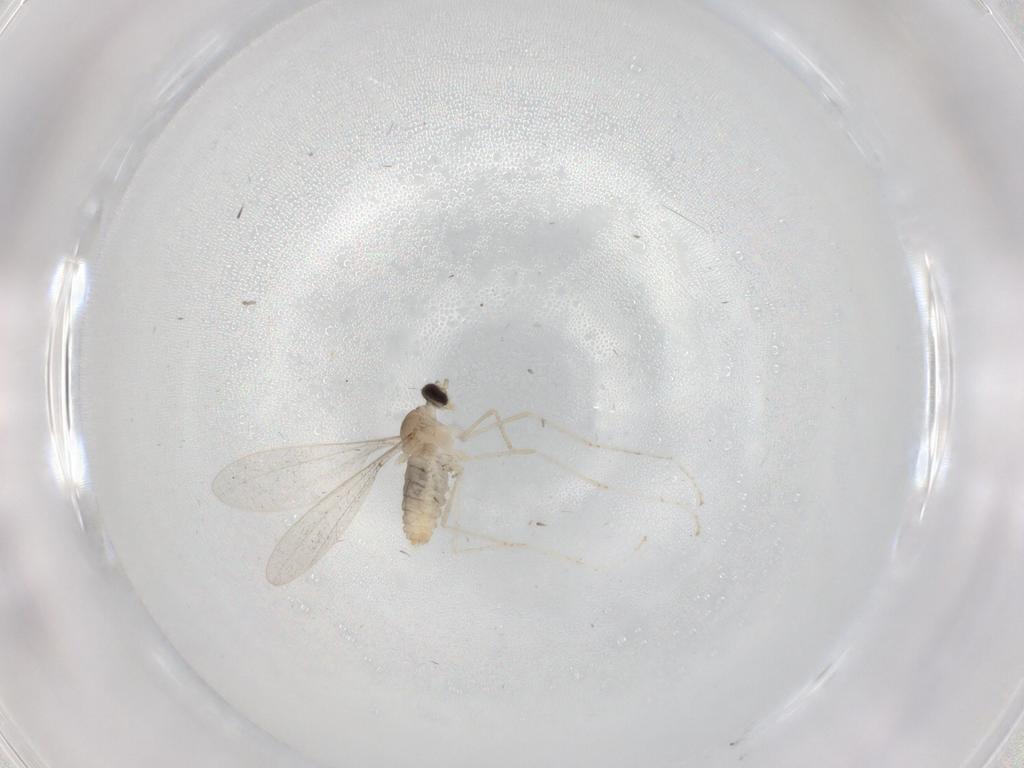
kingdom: Animalia
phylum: Arthropoda
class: Insecta
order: Diptera
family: Cecidomyiidae
